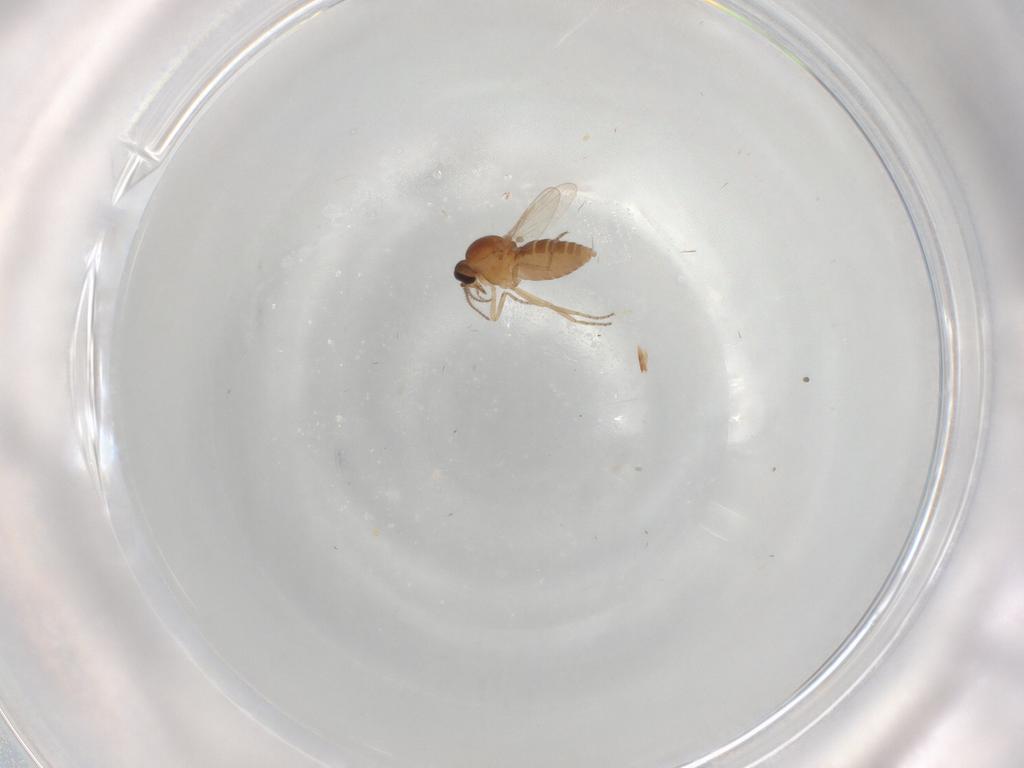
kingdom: Animalia
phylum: Arthropoda
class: Insecta
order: Diptera
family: Ceratopogonidae
